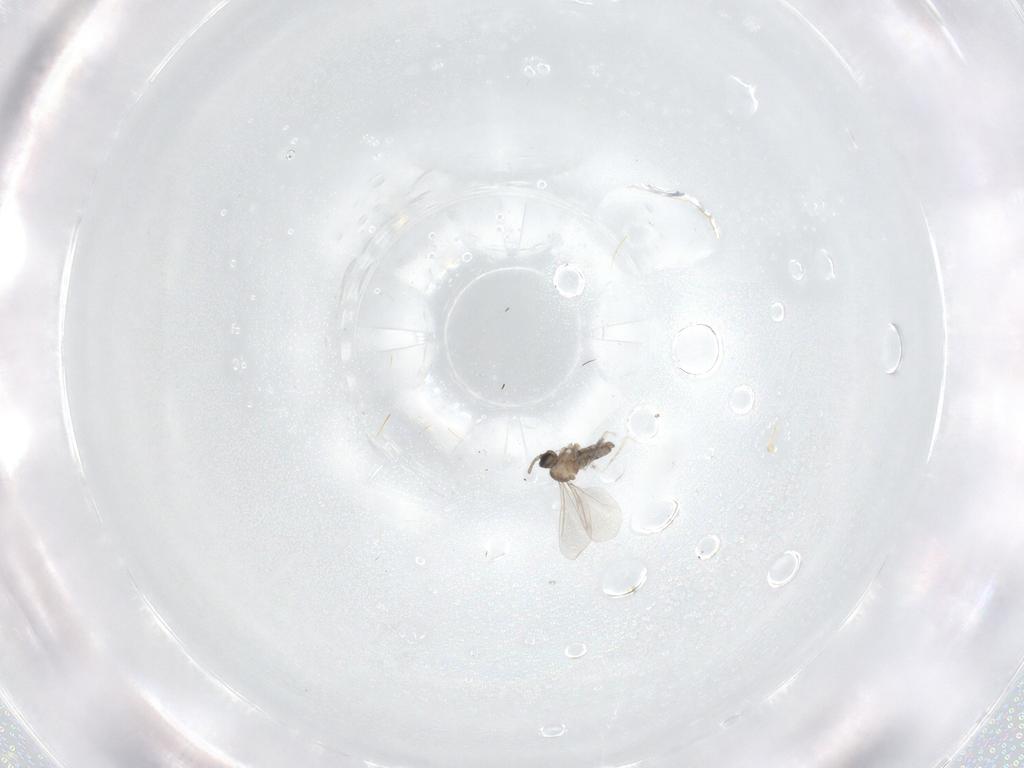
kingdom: Animalia
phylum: Arthropoda
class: Insecta
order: Diptera
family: Cecidomyiidae
